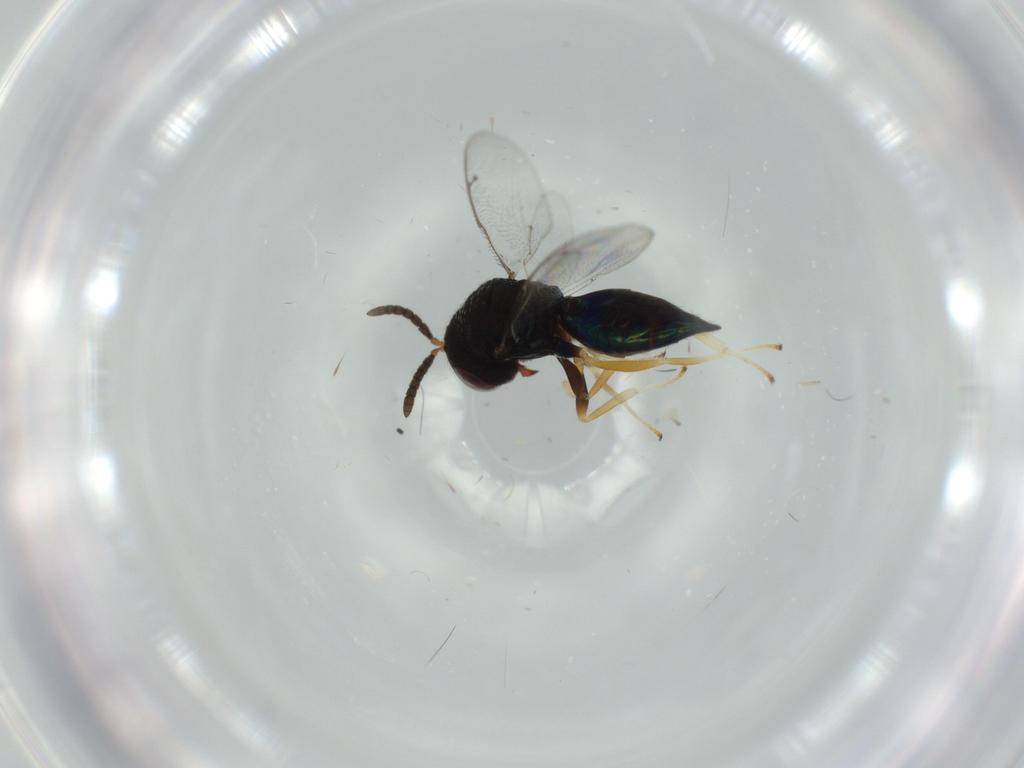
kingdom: Animalia
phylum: Arthropoda
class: Insecta
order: Hymenoptera
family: Pteromalidae
